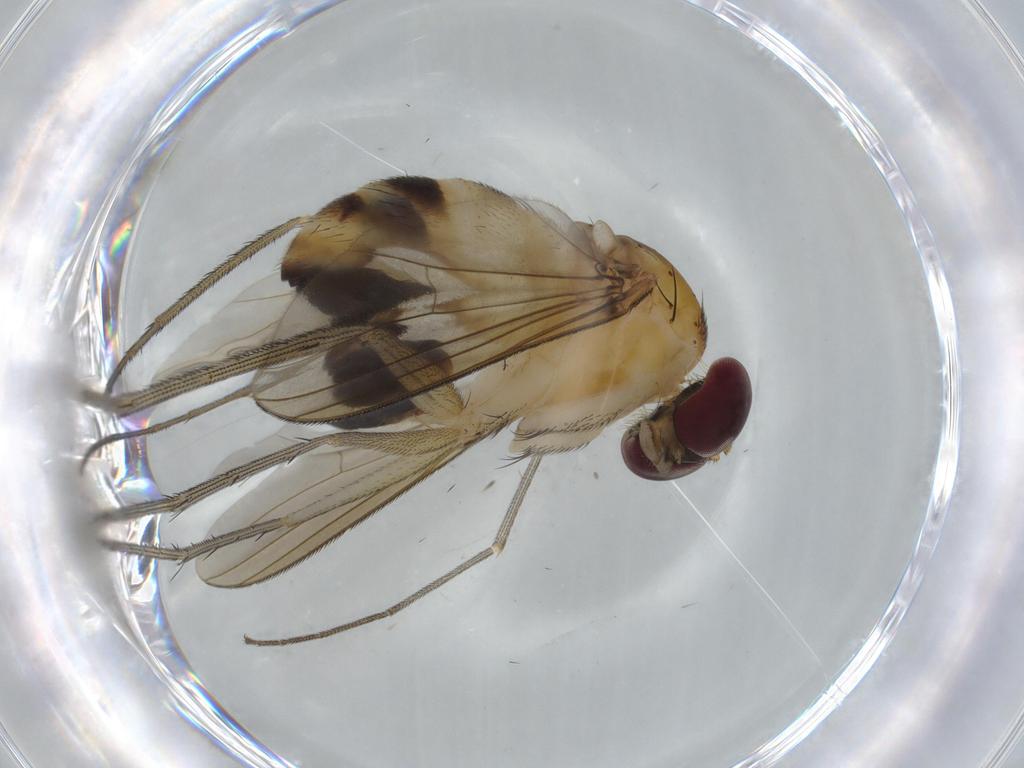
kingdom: Animalia
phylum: Arthropoda
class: Insecta
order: Diptera
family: Dolichopodidae
